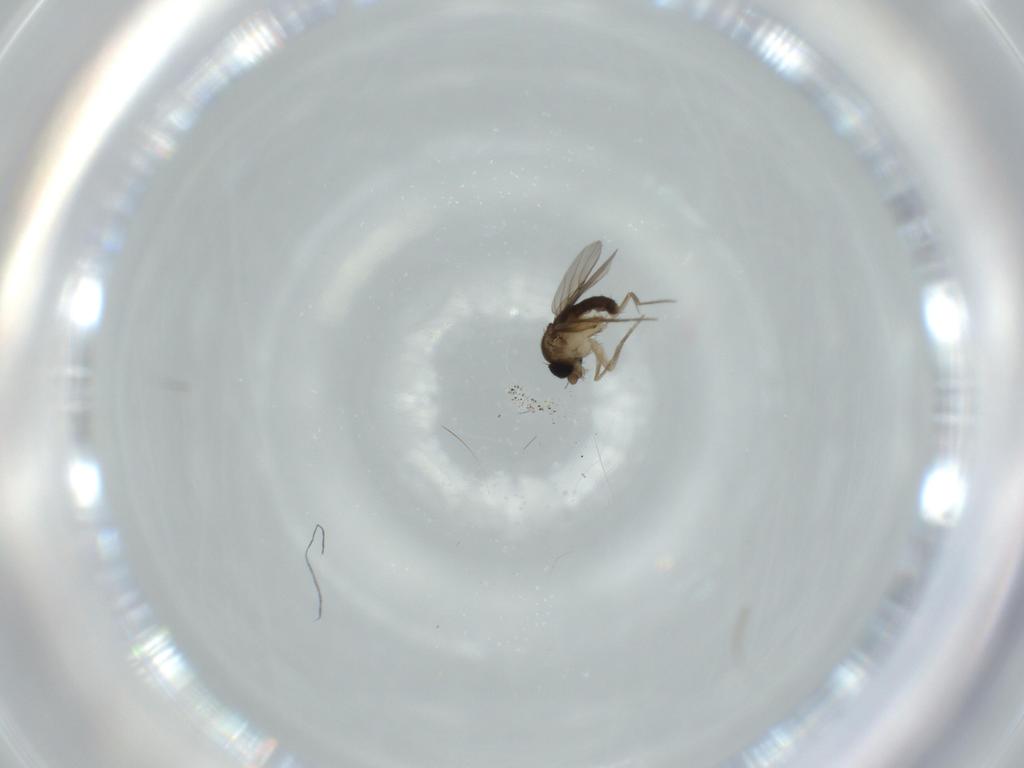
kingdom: Animalia
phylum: Arthropoda
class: Insecta
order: Diptera
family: Phoridae
